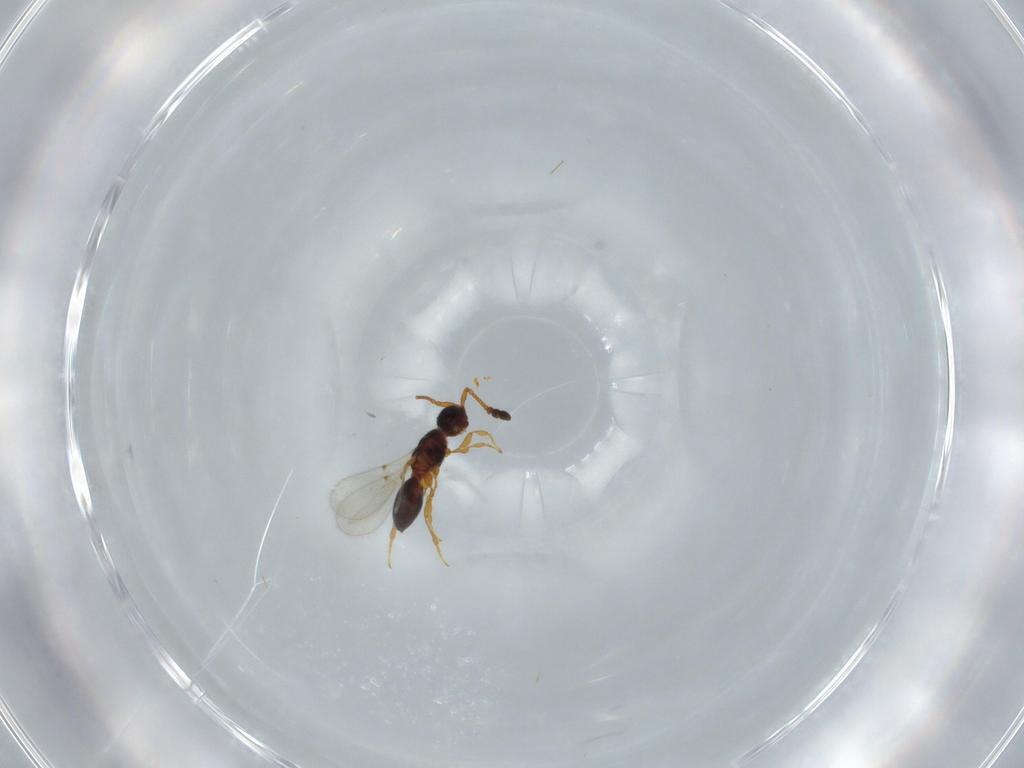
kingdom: Animalia
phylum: Arthropoda
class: Insecta
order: Hymenoptera
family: Diapriidae
